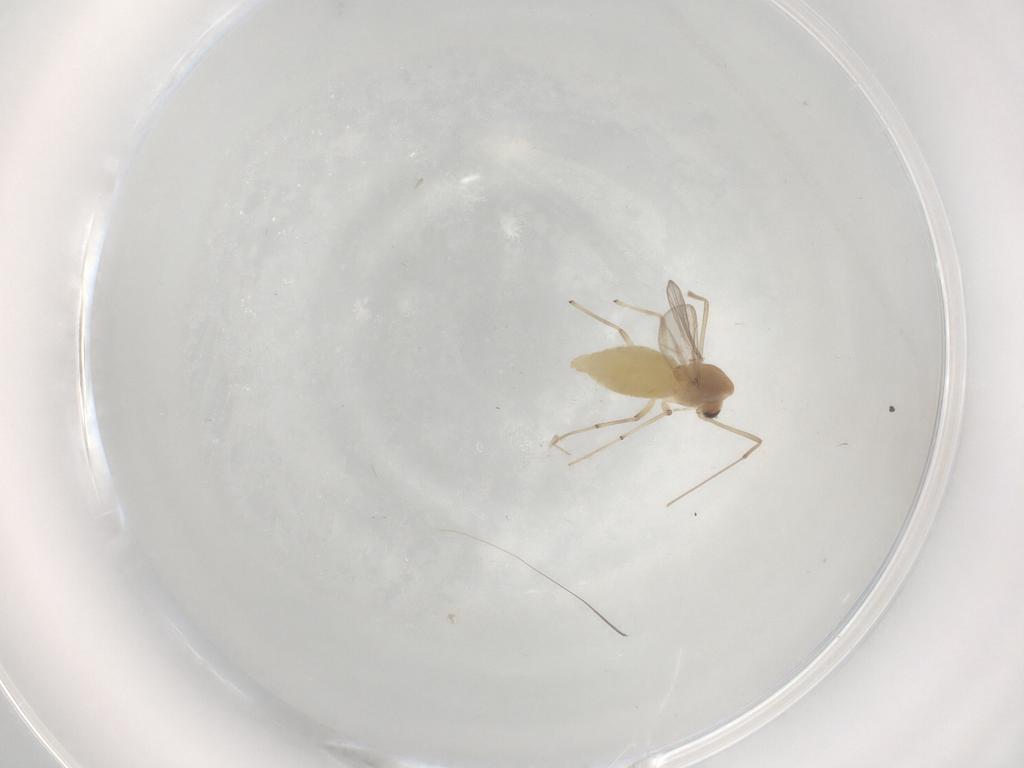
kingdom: Animalia
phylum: Arthropoda
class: Insecta
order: Diptera
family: Chironomidae
